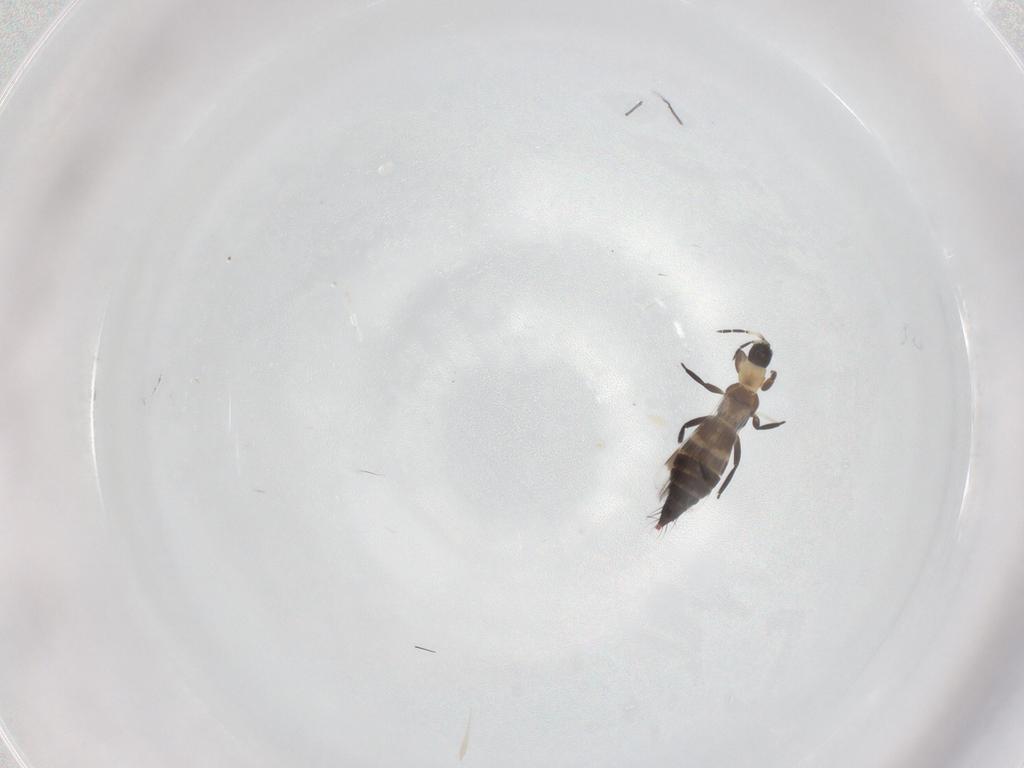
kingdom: Animalia
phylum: Arthropoda
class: Insecta
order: Thysanoptera
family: Aeolothripidae
